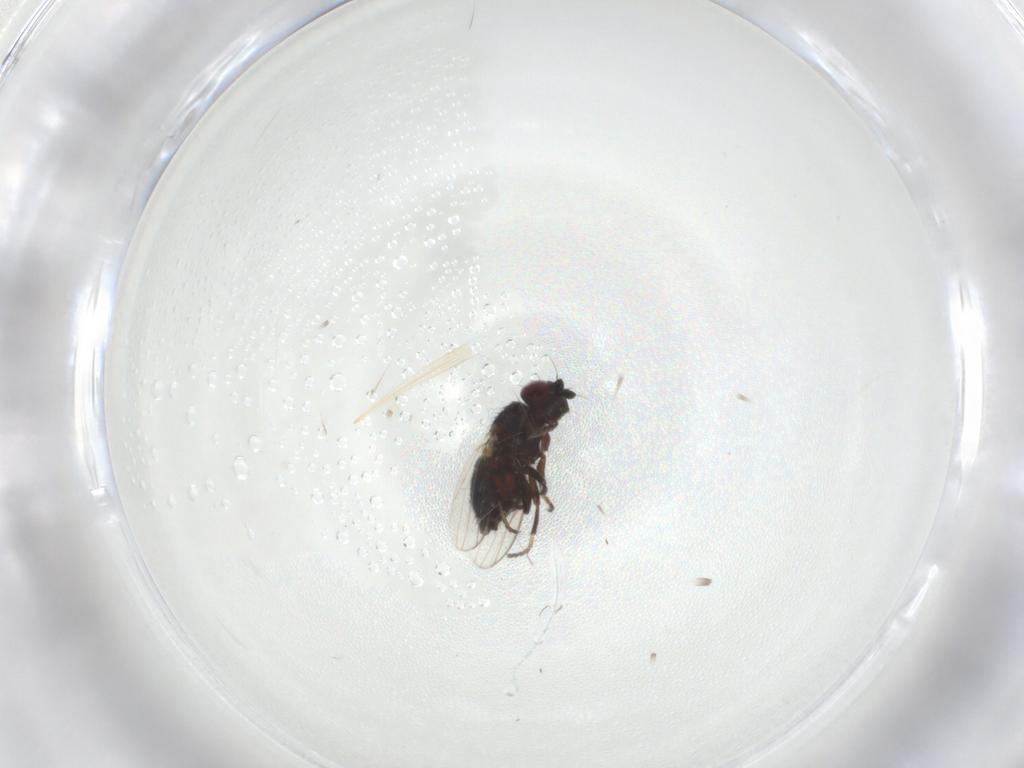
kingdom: Animalia
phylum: Arthropoda
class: Insecta
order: Diptera
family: Milichiidae
